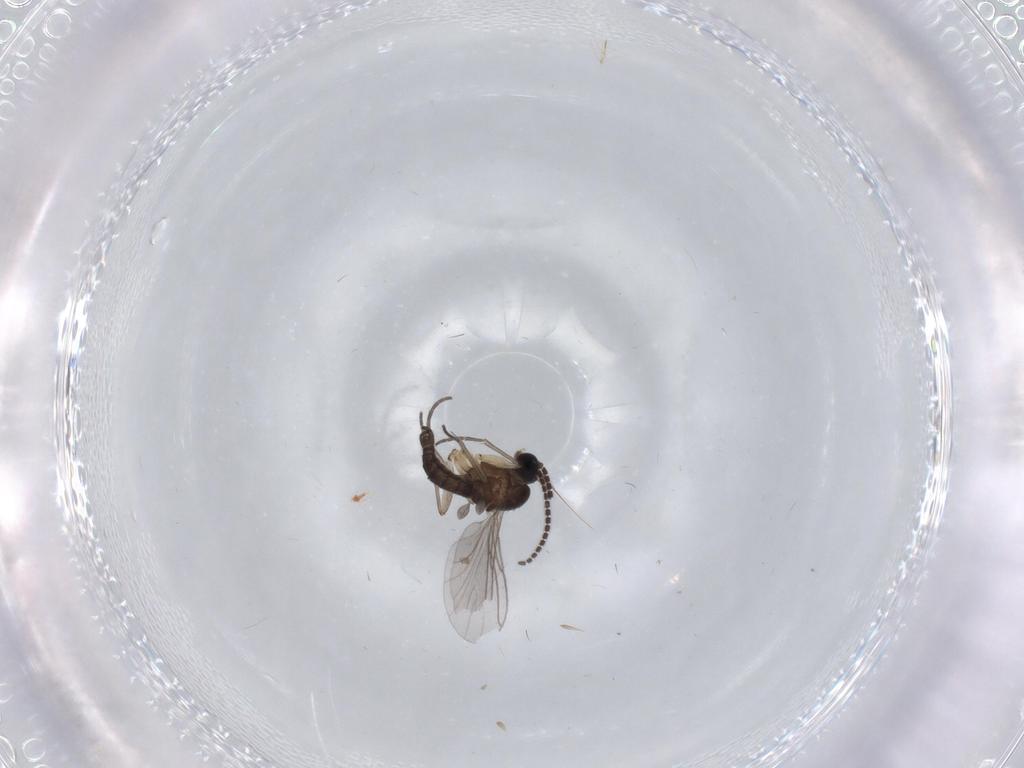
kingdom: Animalia
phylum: Arthropoda
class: Insecta
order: Diptera
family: Sciaridae
